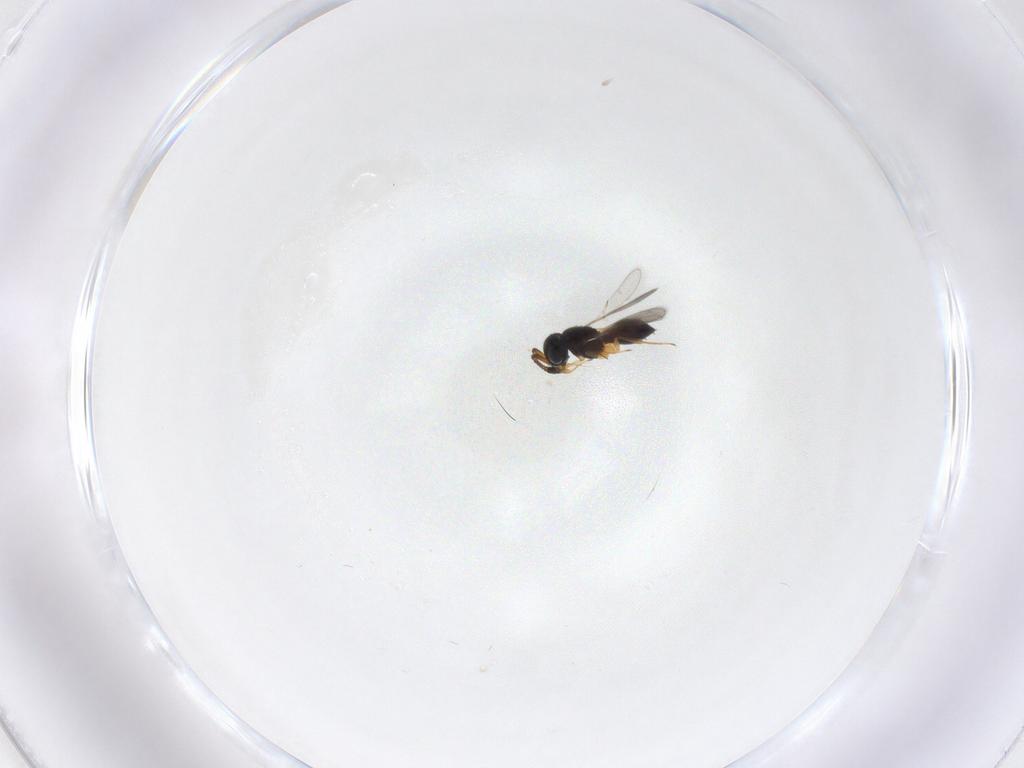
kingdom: Animalia
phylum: Arthropoda
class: Insecta
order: Hymenoptera
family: Scelionidae
